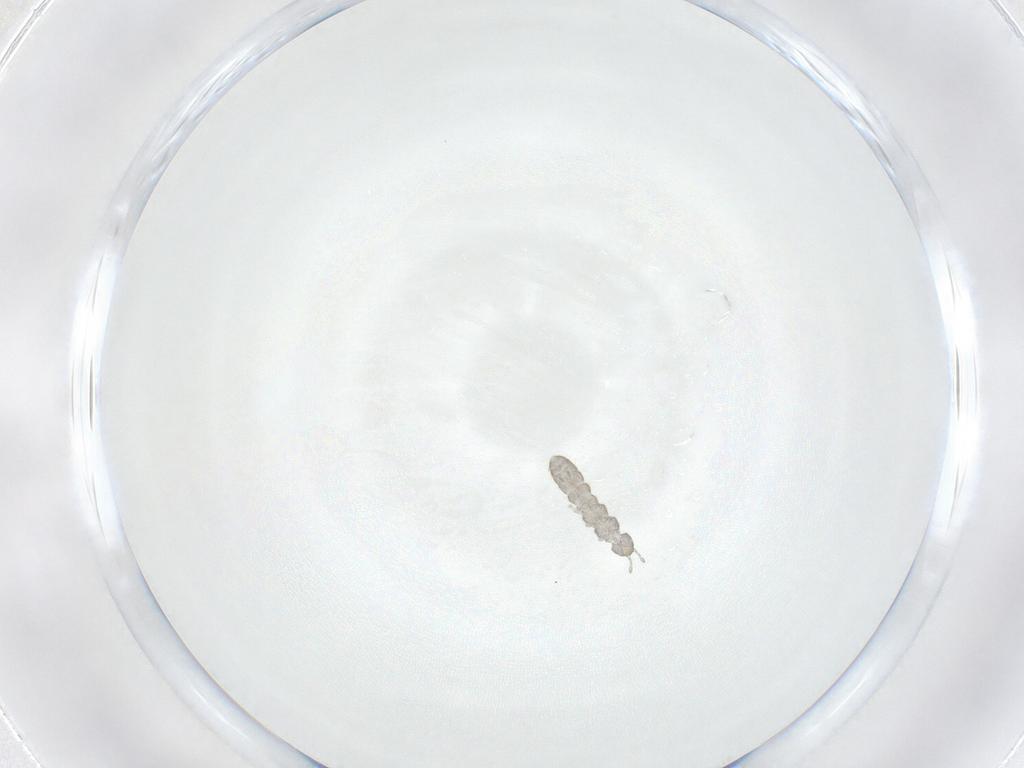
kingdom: Animalia
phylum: Arthropoda
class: Collembola
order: Entomobryomorpha
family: Isotomidae
